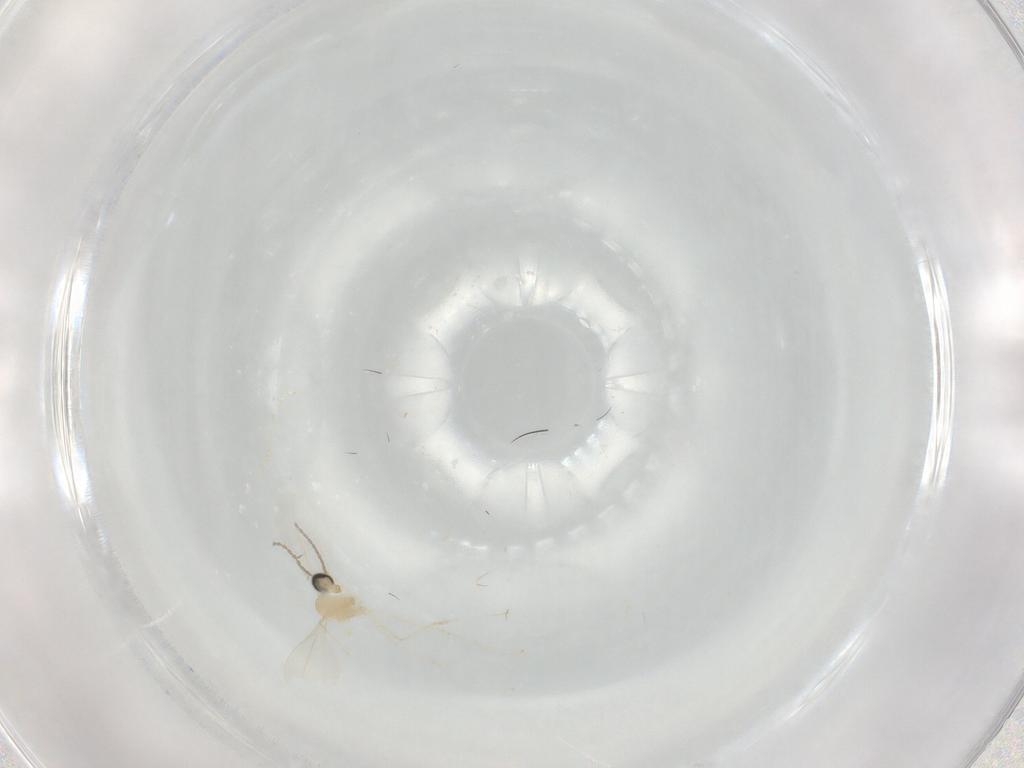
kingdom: Animalia
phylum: Arthropoda
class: Insecta
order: Diptera
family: Cecidomyiidae
